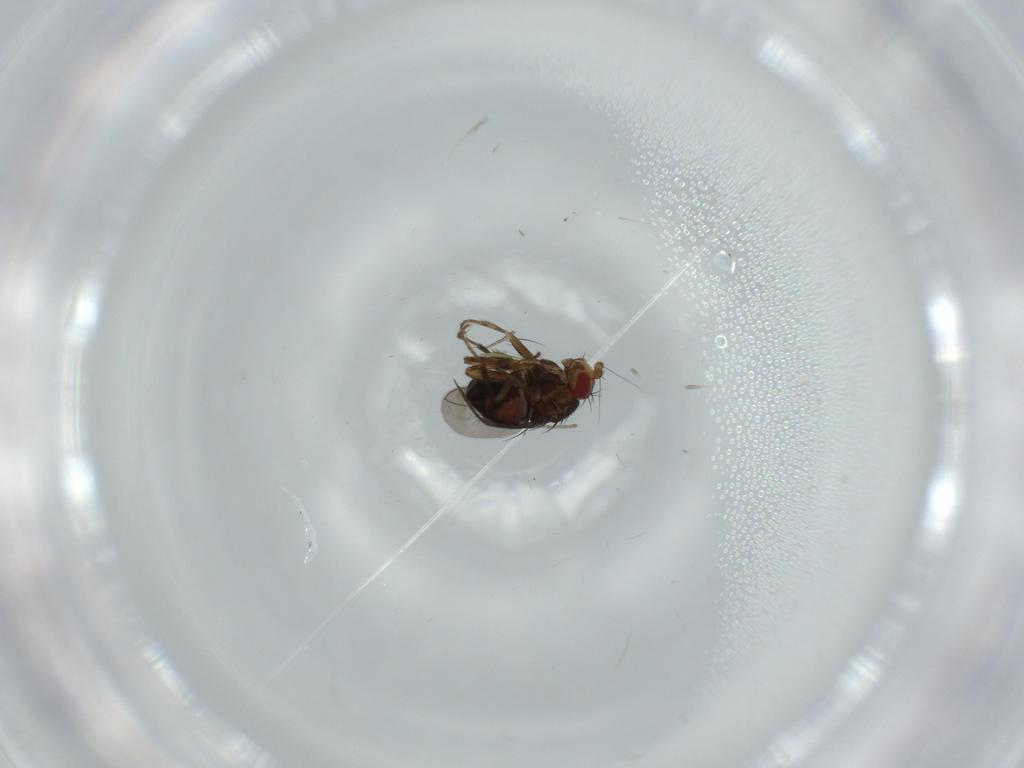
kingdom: Animalia
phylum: Arthropoda
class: Insecta
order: Diptera
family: Cecidomyiidae
